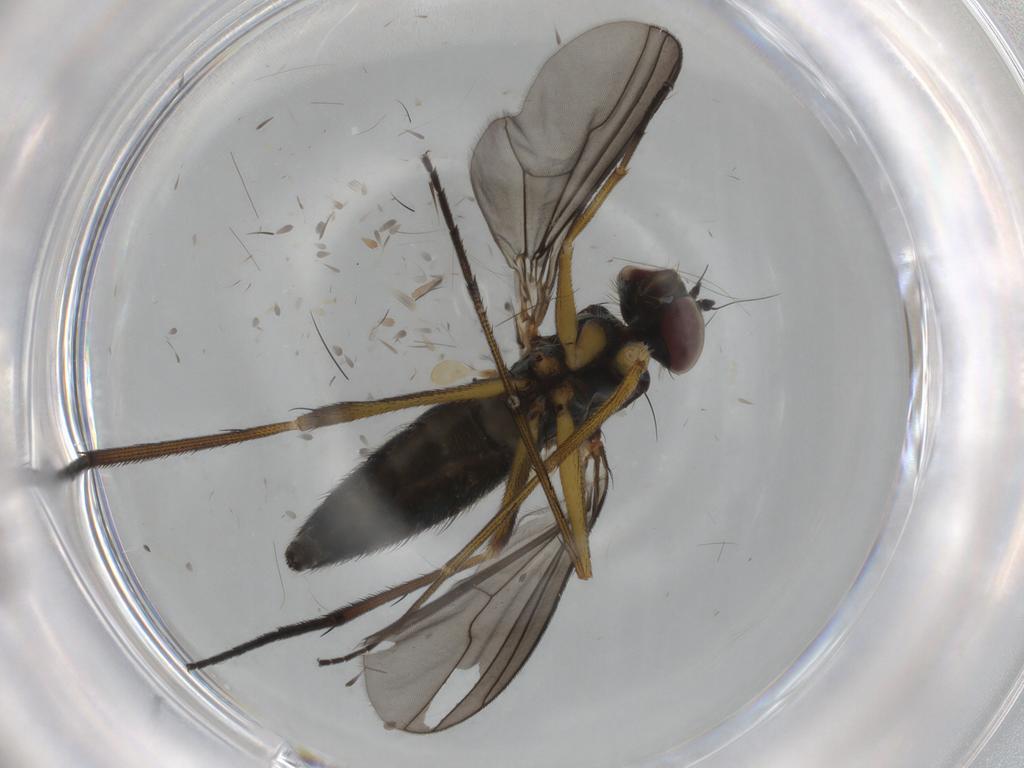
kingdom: Animalia
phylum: Arthropoda
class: Insecta
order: Diptera
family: Dolichopodidae
